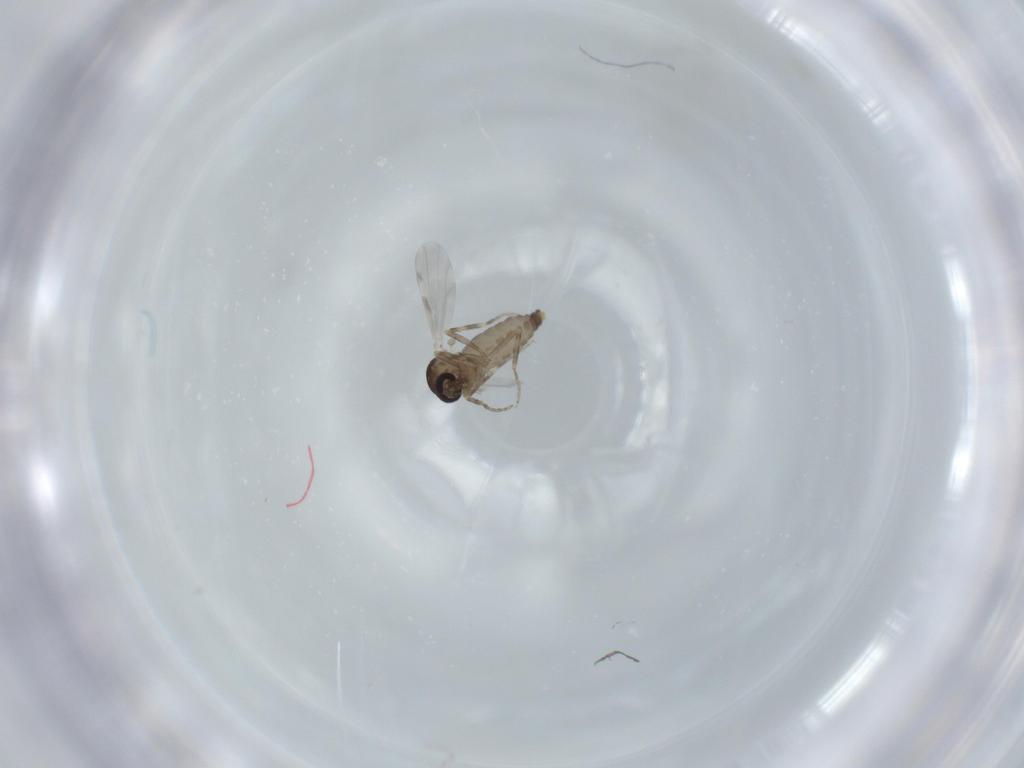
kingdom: Animalia
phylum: Arthropoda
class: Insecta
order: Diptera
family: Ceratopogonidae
